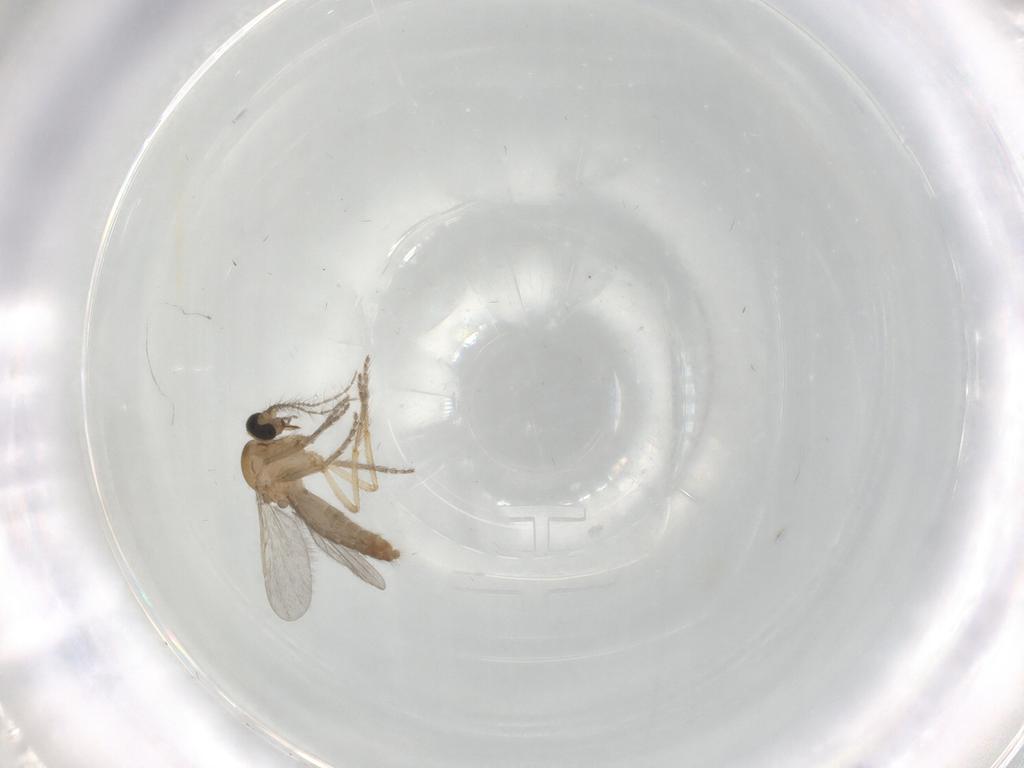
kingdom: Animalia
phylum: Arthropoda
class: Insecta
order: Diptera
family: Ceratopogonidae
